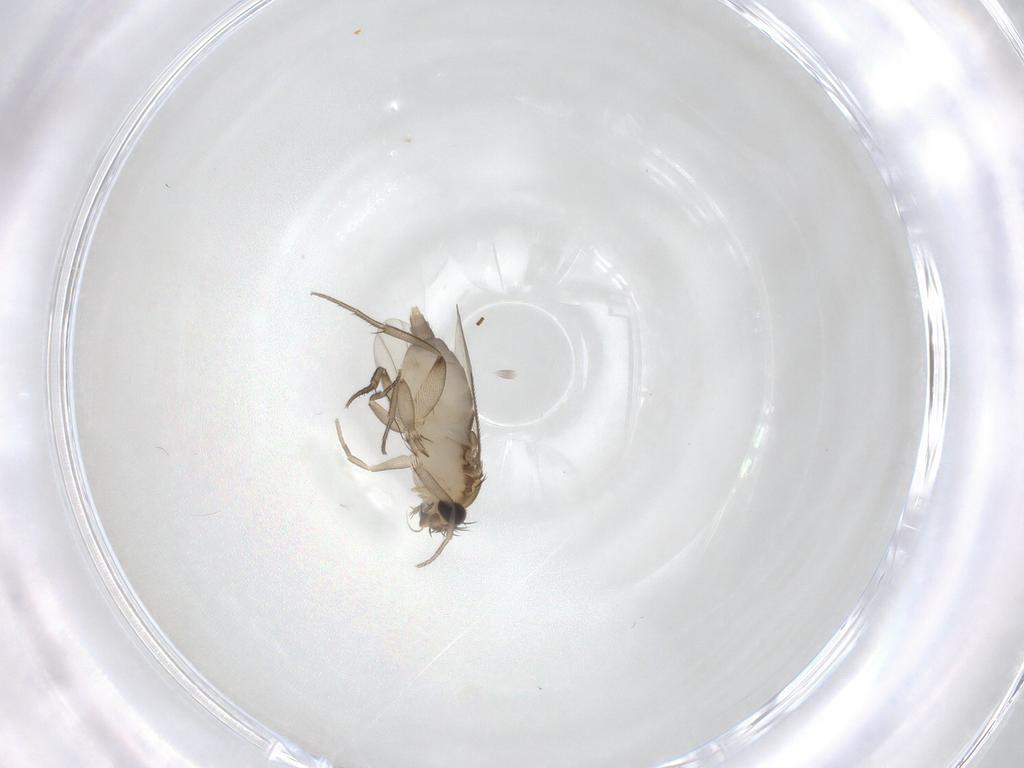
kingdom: Animalia
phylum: Arthropoda
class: Insecta
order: Diptera
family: Phoridae
